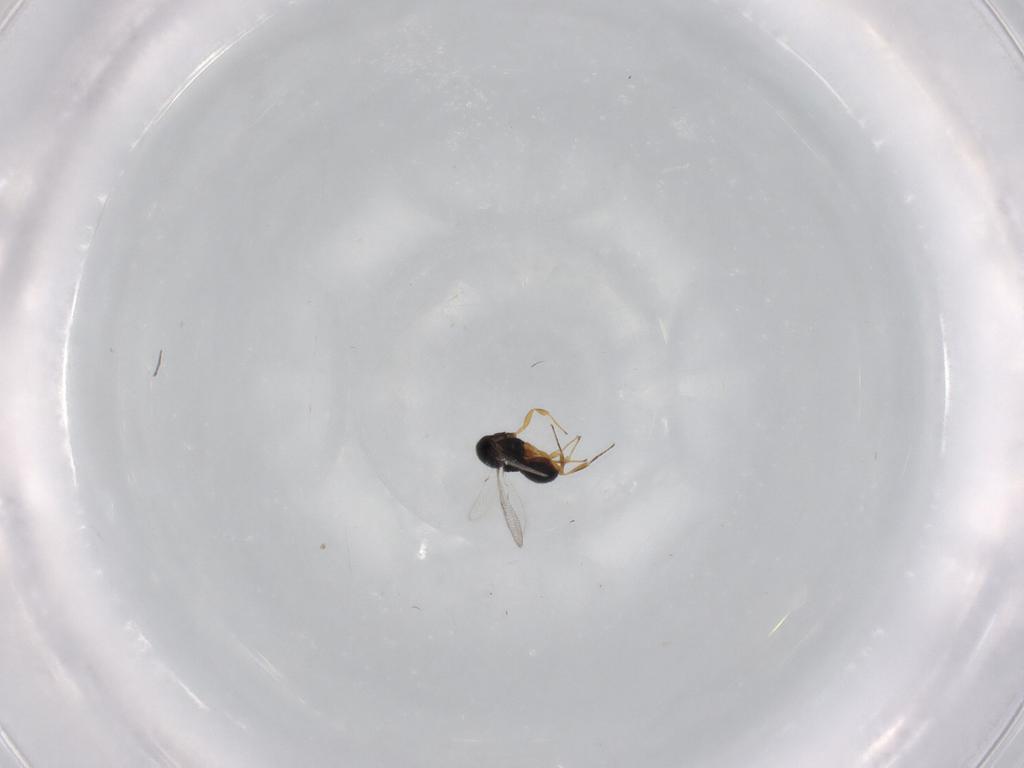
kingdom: Animalia
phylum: Arthropoda
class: Insecta
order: Hymenoptera
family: Scelionidae
